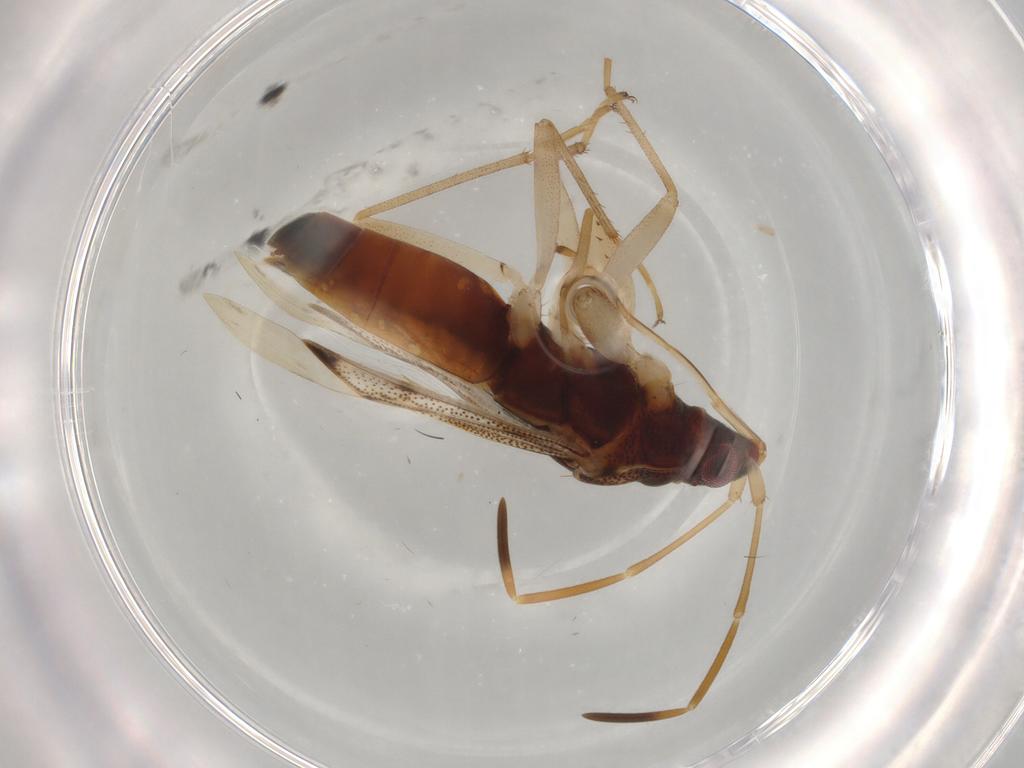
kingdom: Animalia
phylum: Arthropoda
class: Insecta
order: Hemiptera
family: Rhyparochromidae
